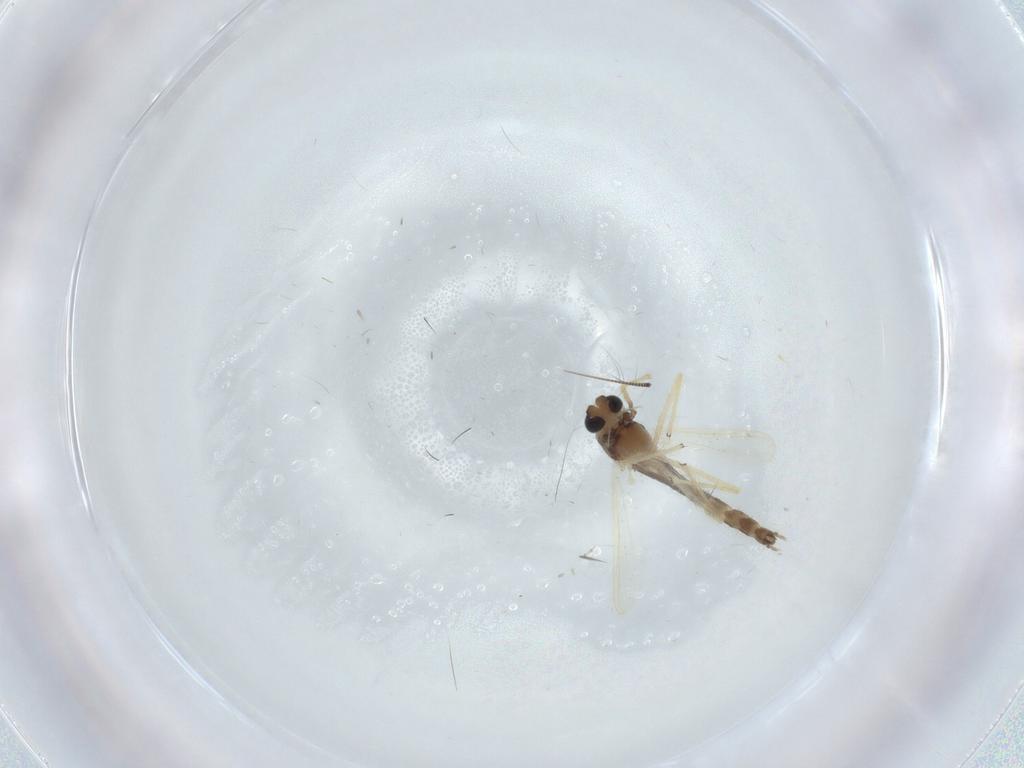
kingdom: Animalia
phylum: Arthropoda
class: Insecta
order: Diptera
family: Chironomidae
